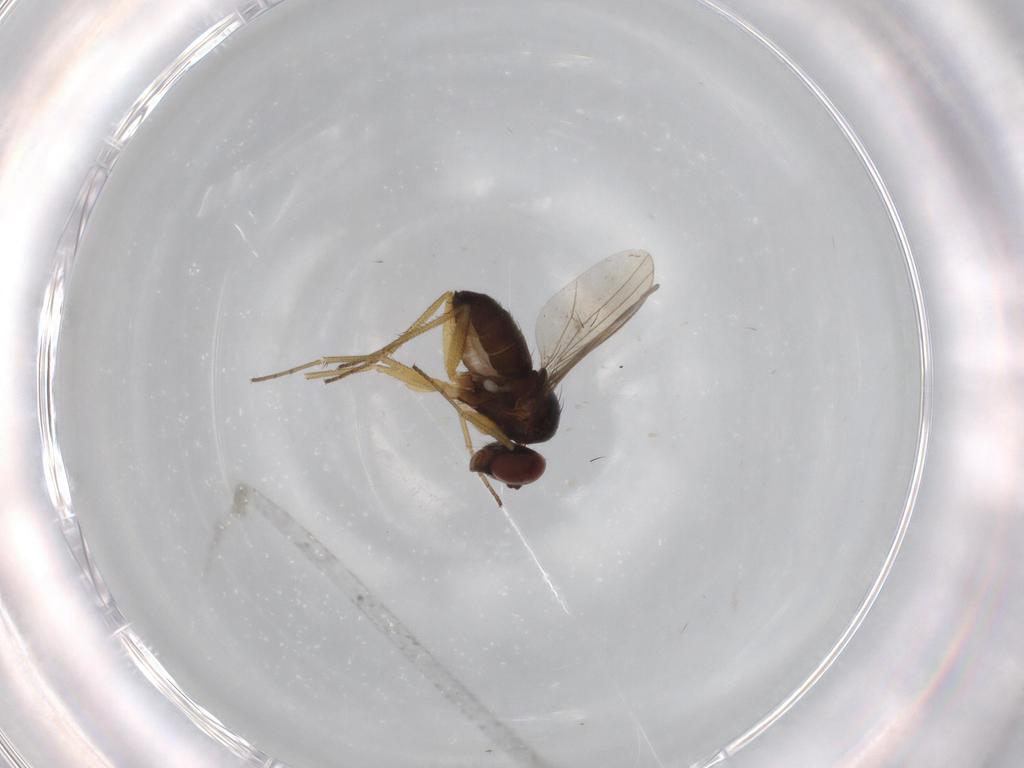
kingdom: Animalia
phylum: Arthropoda
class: Insecta
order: Diptera
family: Dolichopodidae
